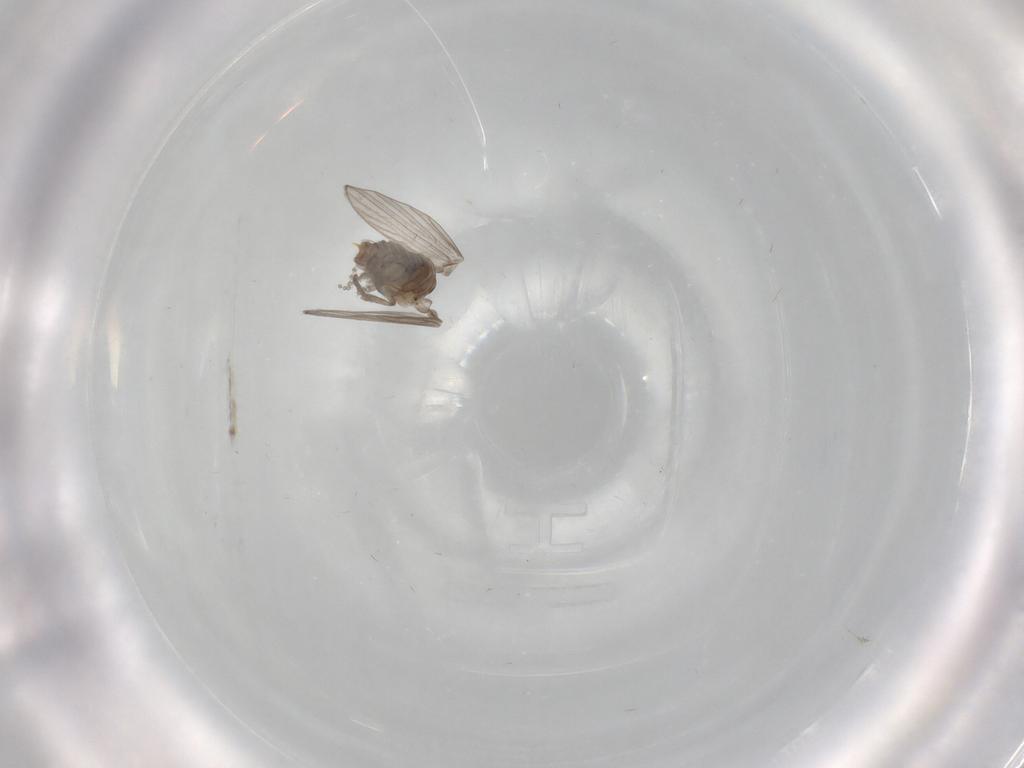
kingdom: Animalia
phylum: Arthropoda
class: Insecta
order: Diptera
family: Psychodidae
